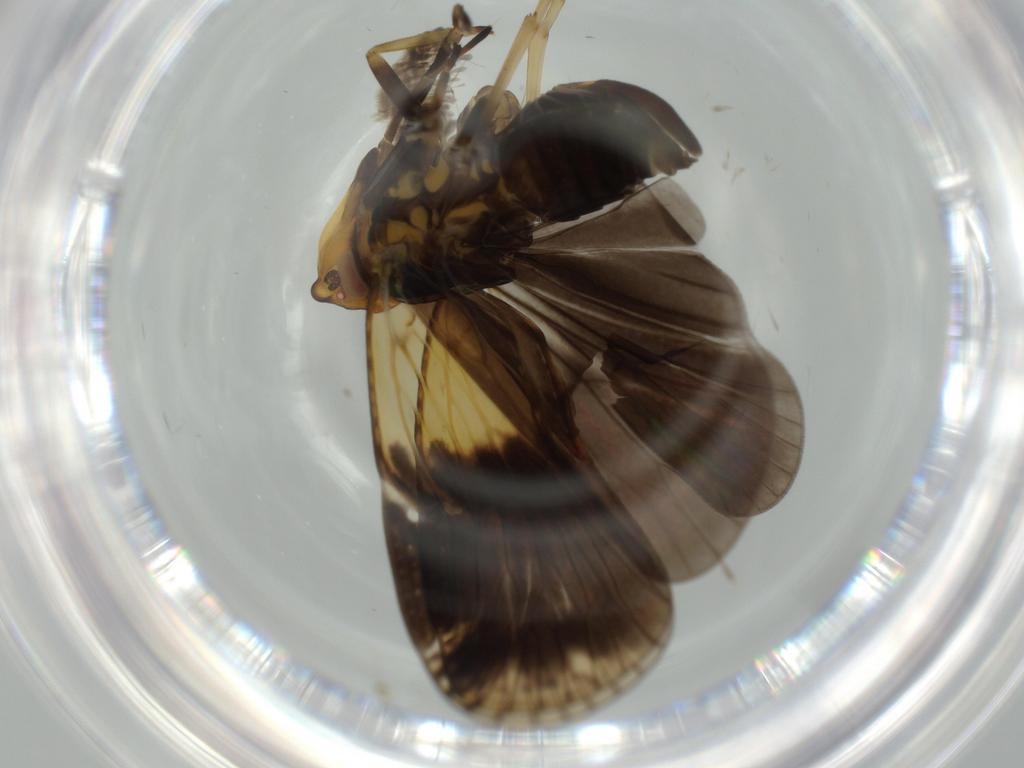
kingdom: Animalia
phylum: Arthropoda
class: Insecta
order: Hemiptera
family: Cixiidae
